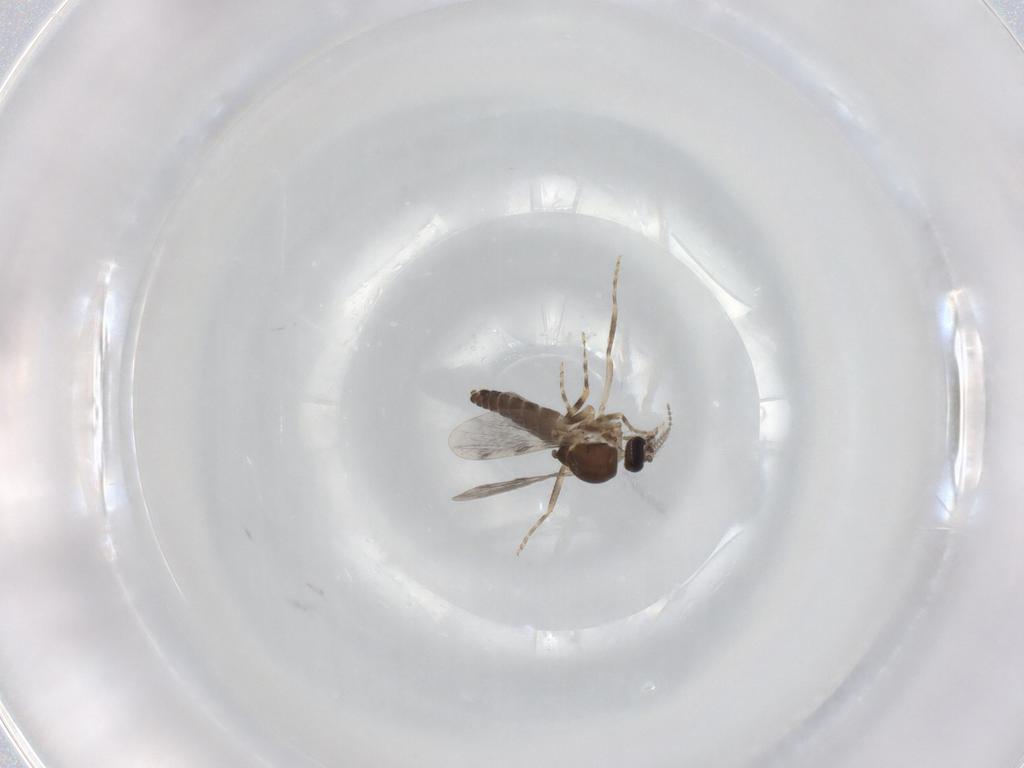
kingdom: Animalia
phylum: Arthropoda
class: Insecta
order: Diptera
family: Ceratopogonidae
